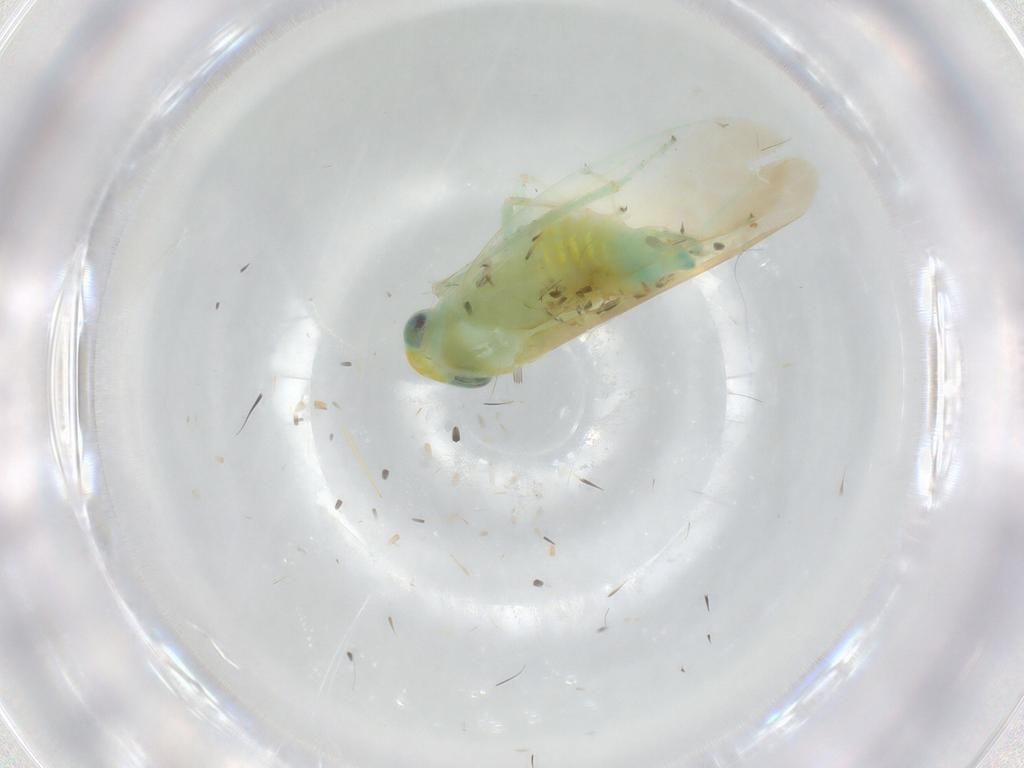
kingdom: Animalia
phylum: Arthropoda
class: Insecta
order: Hemiptera
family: Cicadellidae
